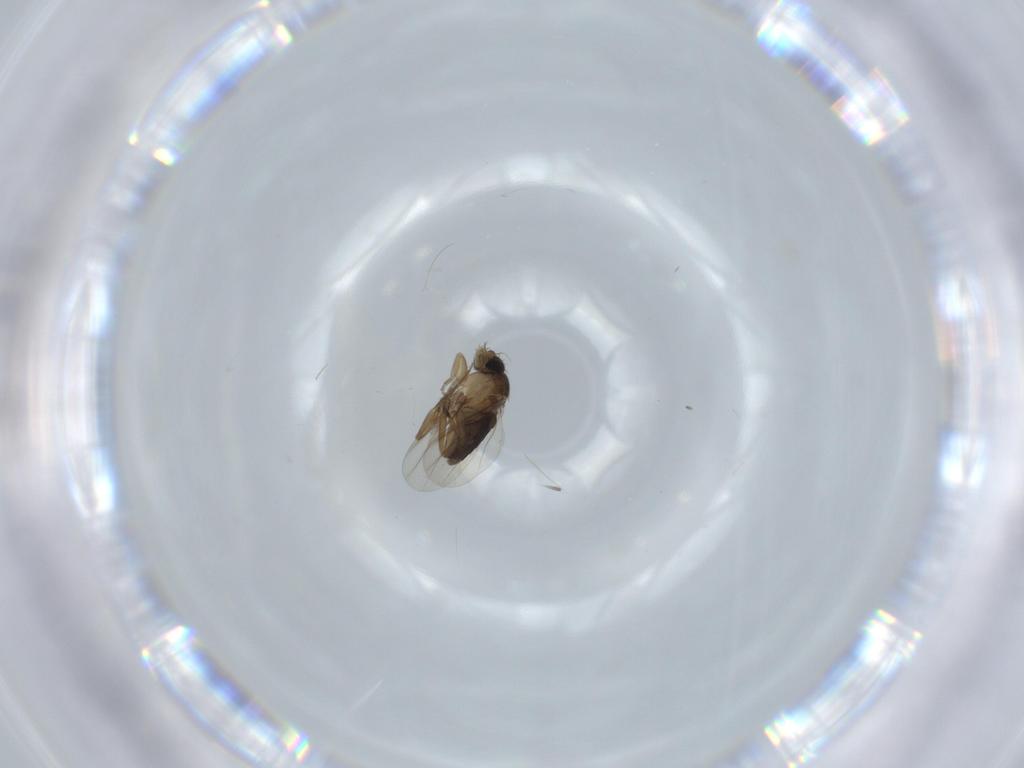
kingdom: Animalia
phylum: Arthropoda
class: Insecta
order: Diptera
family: Phoridae
